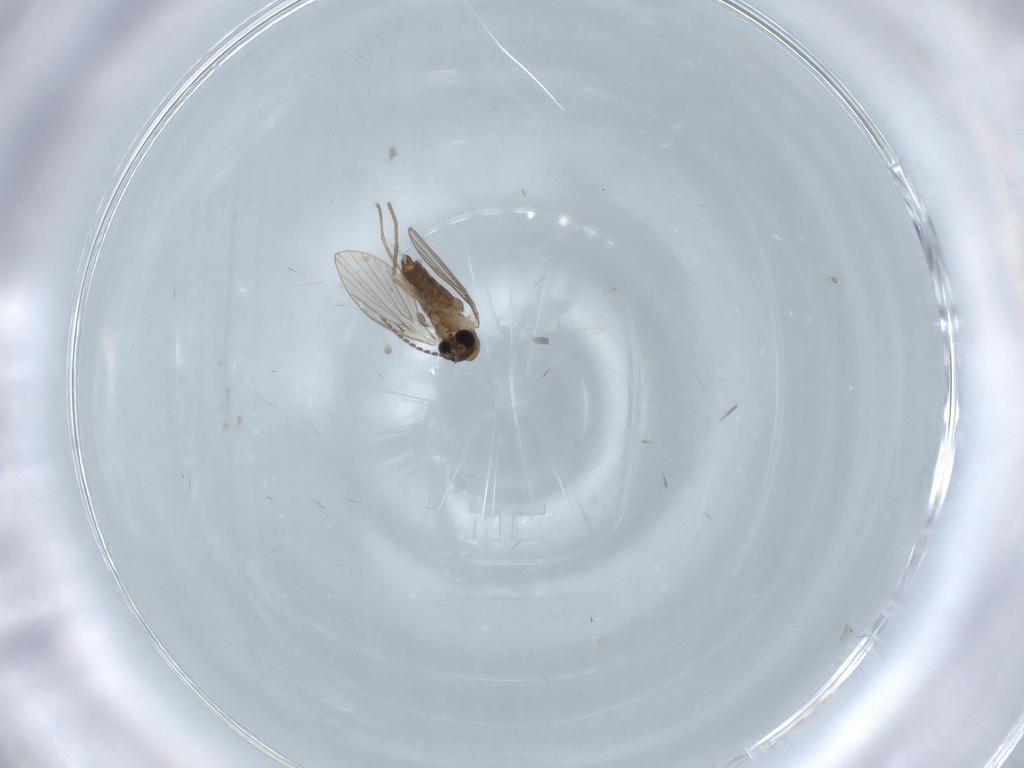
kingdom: Animalia
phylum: Arthropoda
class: Insecta
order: Diptera
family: Psychodidae
